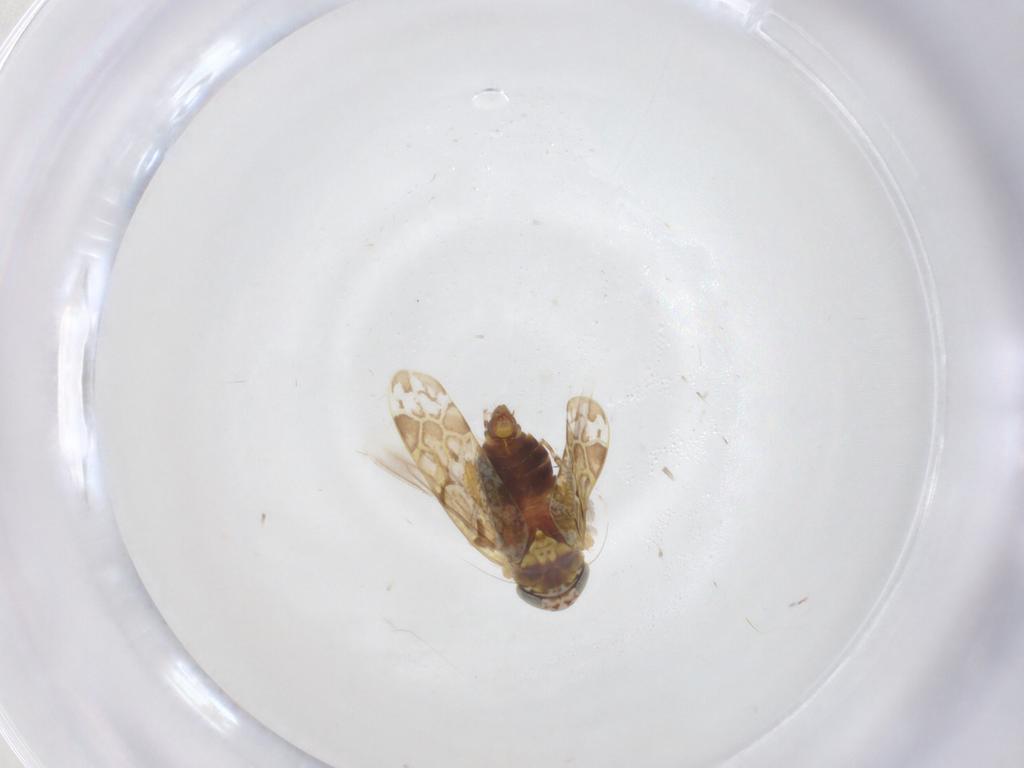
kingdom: Animalia
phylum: Arthropoda
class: Insecta
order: Hemiptera
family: Cicadellidae
